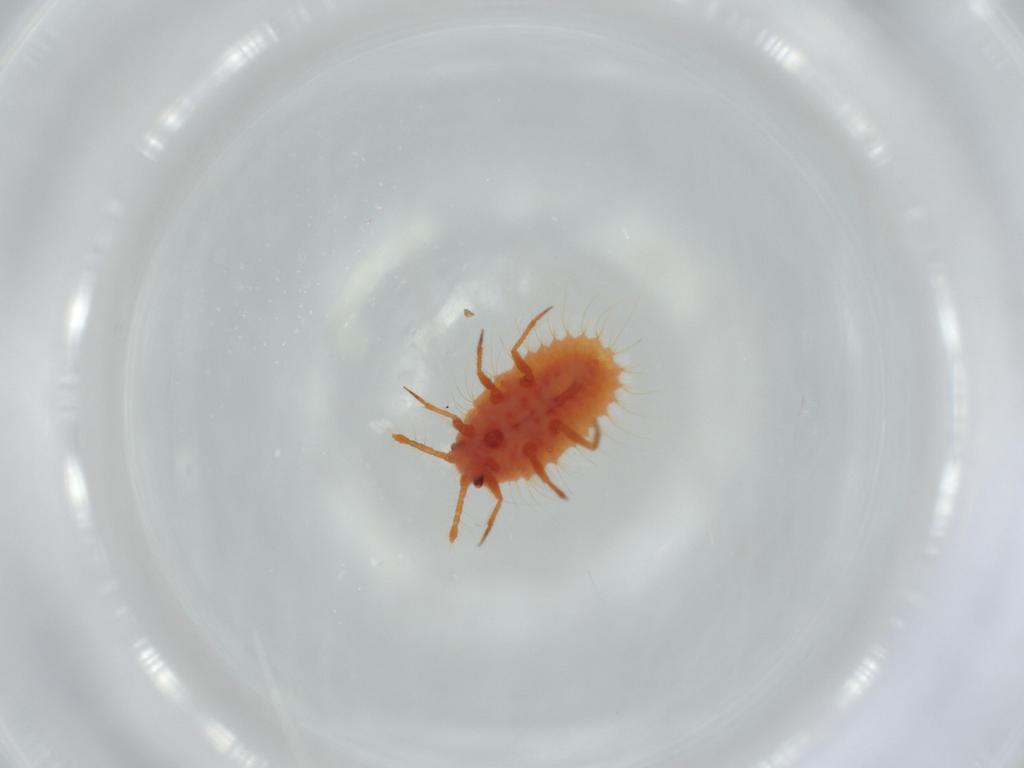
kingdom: Animalia
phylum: Arthropoda
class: Insecta
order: Hemiptera
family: Coccoidea_incertae_sedis
